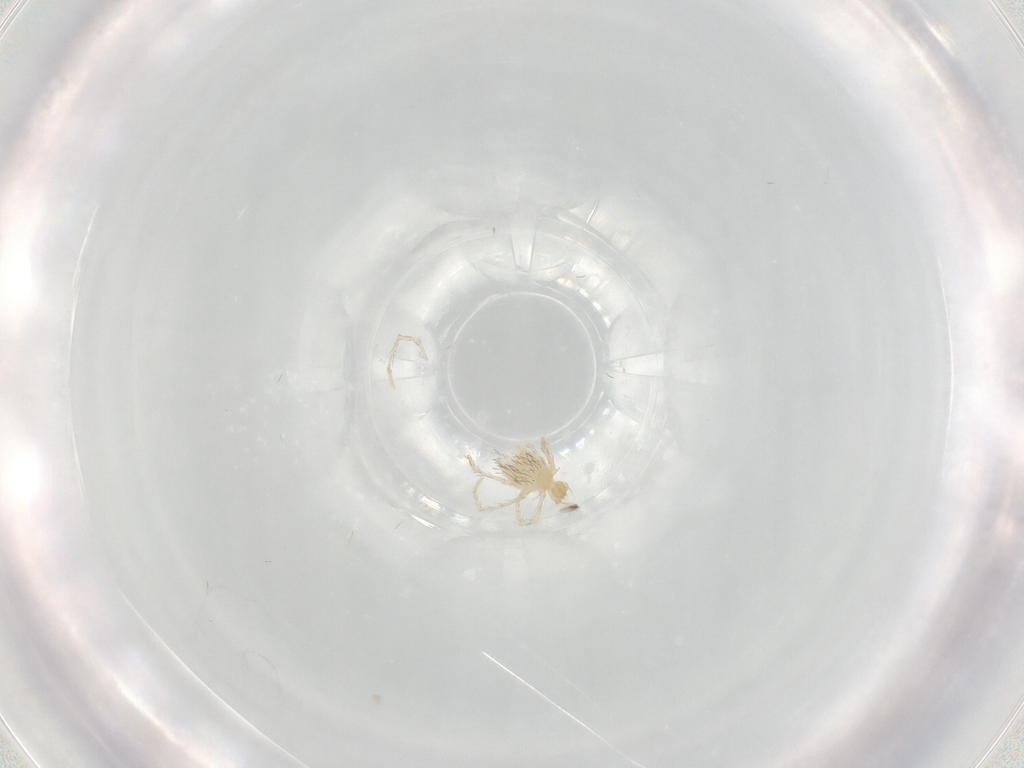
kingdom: Animalia
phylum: Arthropoda
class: Arachnida
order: Trombidiformes
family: Erythraeidae
